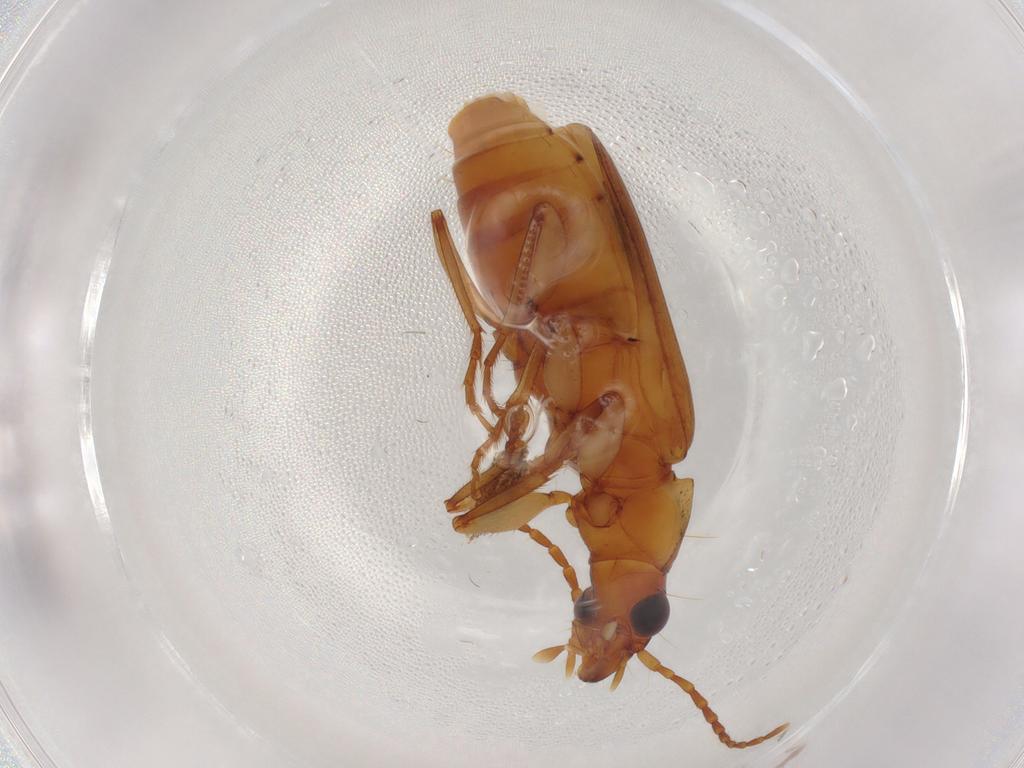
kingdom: Animalia
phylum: Arthropoda
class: Insecta
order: Coleoptera
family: Carabidae
